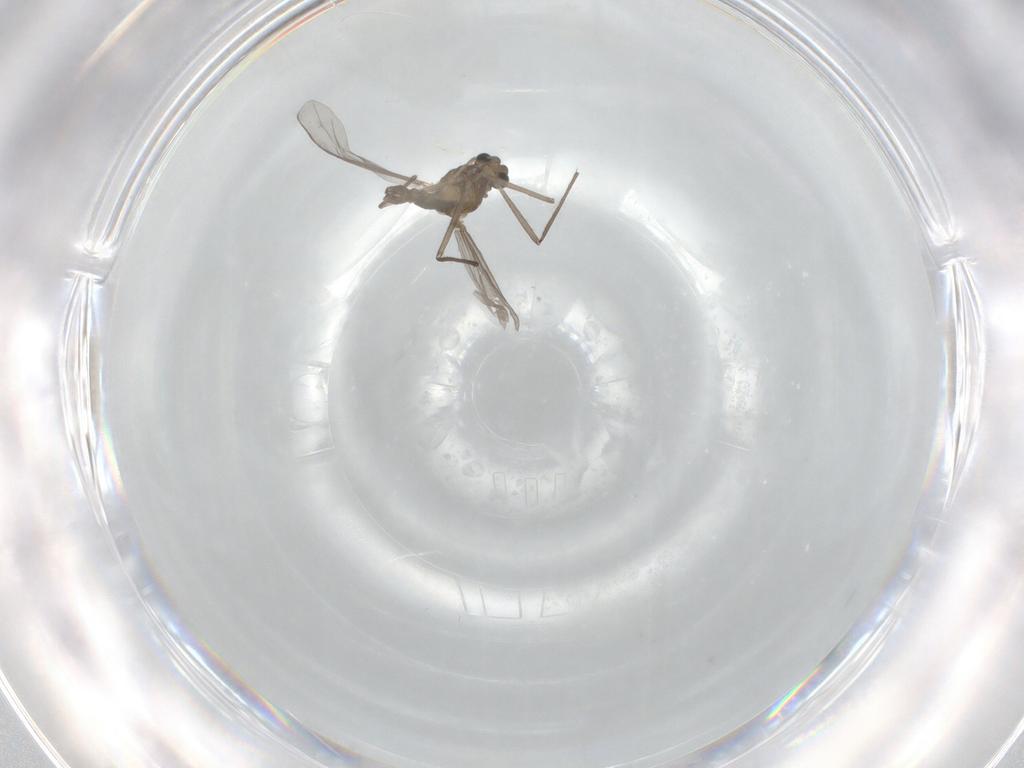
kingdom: Animalia
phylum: Arthropoda
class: Insecta
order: Diptera
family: Chironomidae
